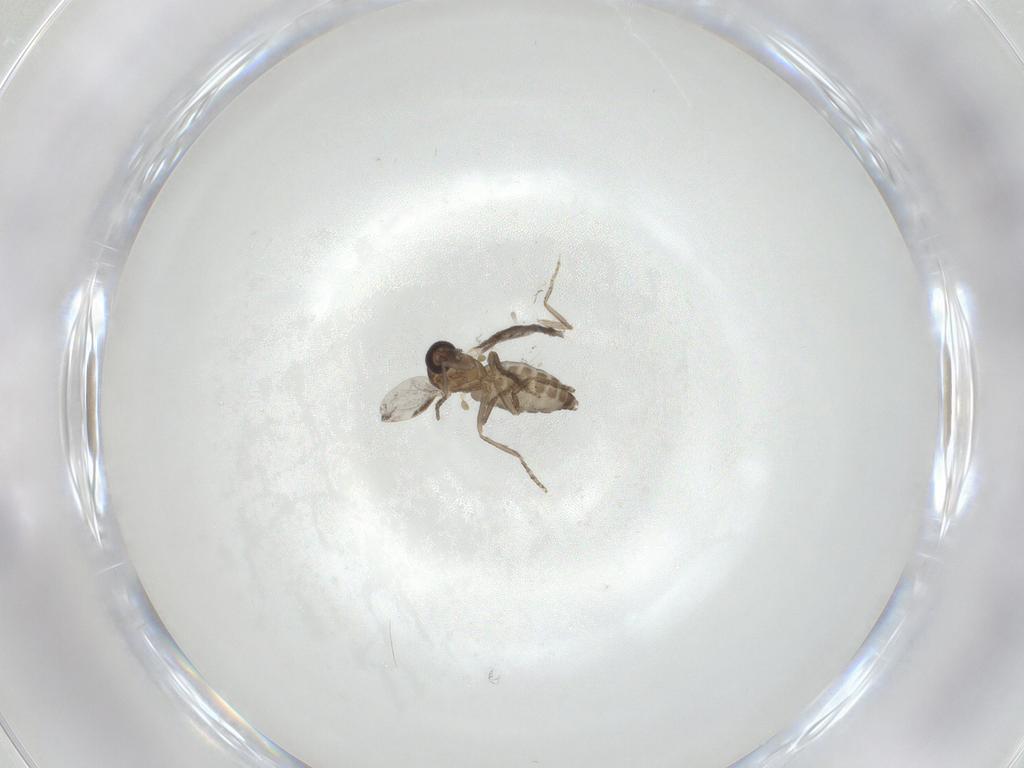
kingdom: Animalia
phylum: Arthropoda
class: Insecta
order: Diptera
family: Ceratopogonidae
